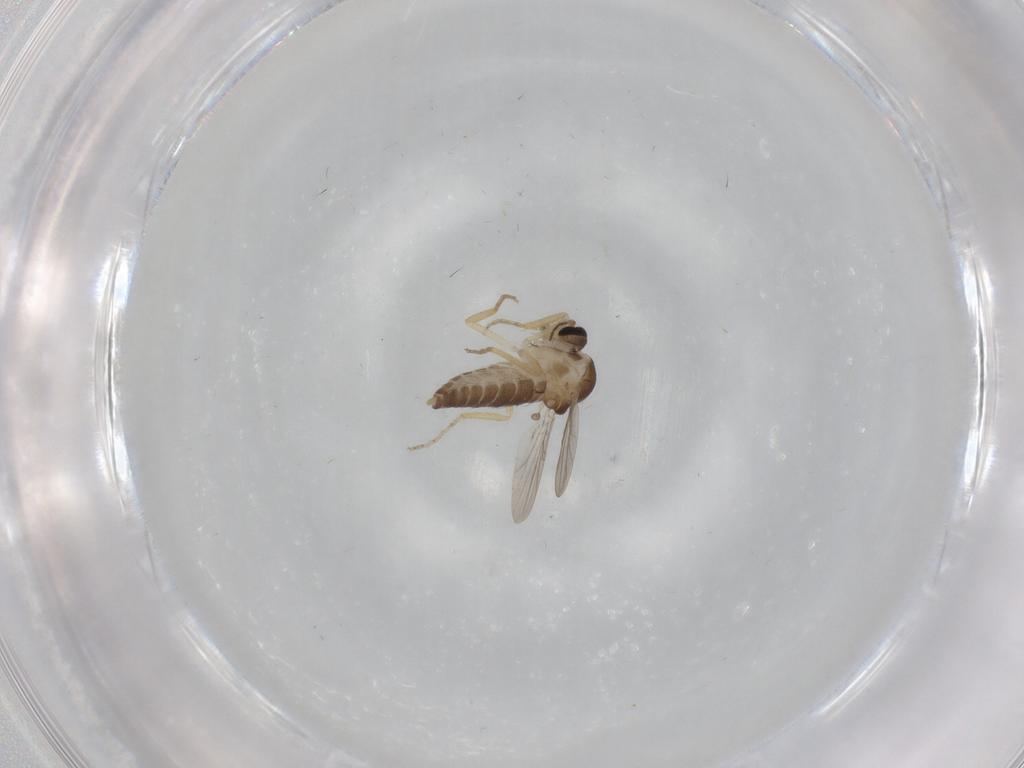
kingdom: Animalia
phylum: Arthropoda
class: Insecta
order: Diptera
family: Ceratopogonidae
